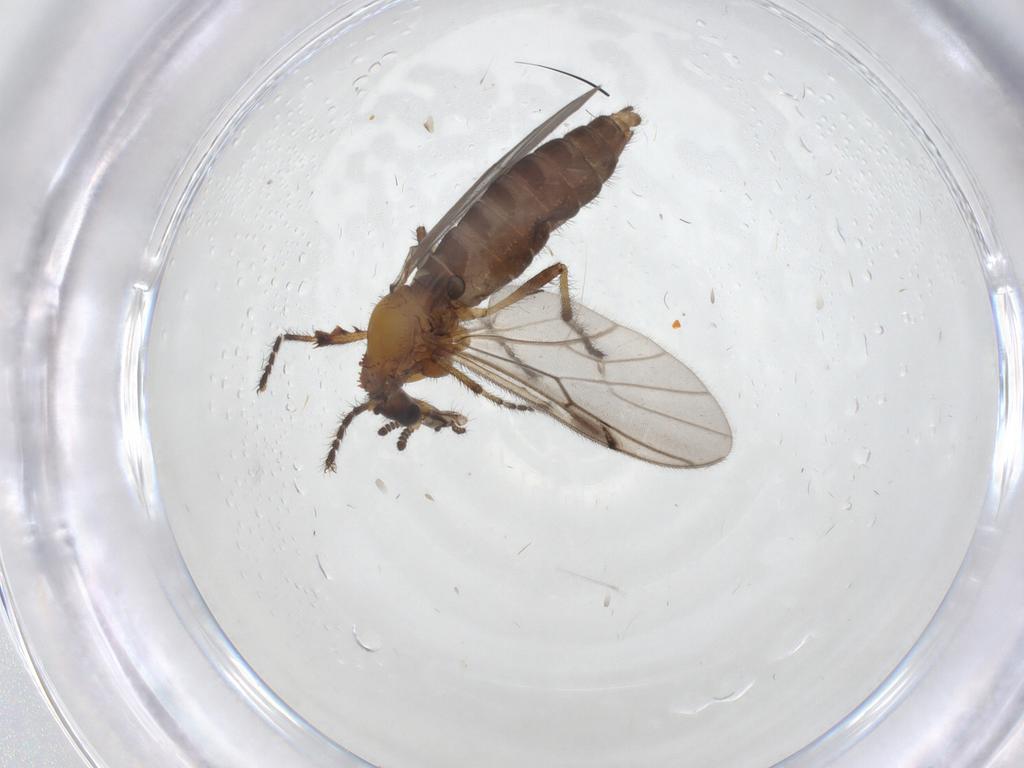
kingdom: Animalia
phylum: Arthropoda
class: Insecta
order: Diptera
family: Bibionidae
